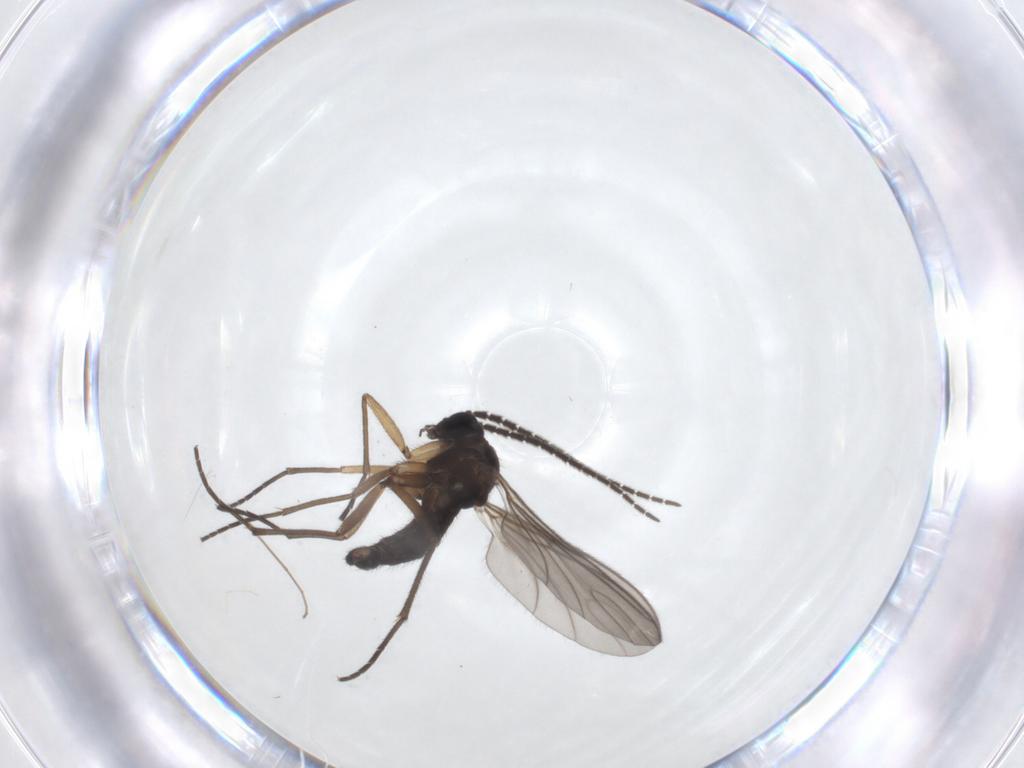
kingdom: Animalia
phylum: Arthropoda
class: Insecta
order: Diptera
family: Sciaridae
